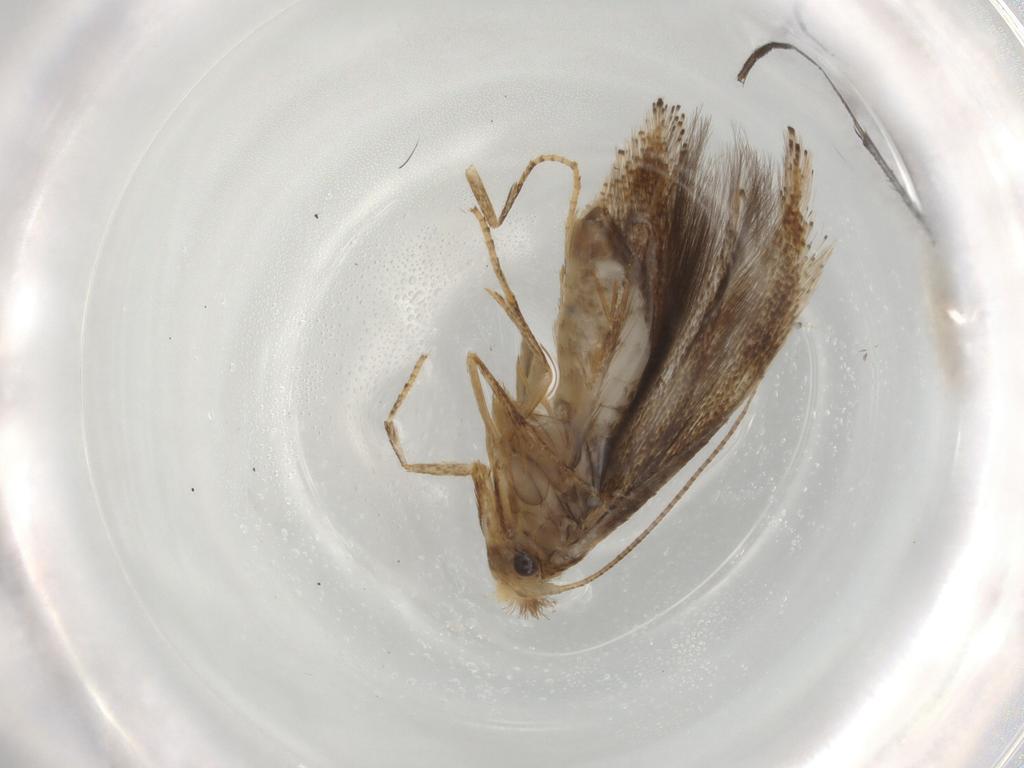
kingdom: Animalia
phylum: Arthropoda
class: Insecta
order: Lepidoptera
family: Bucculatricidae
